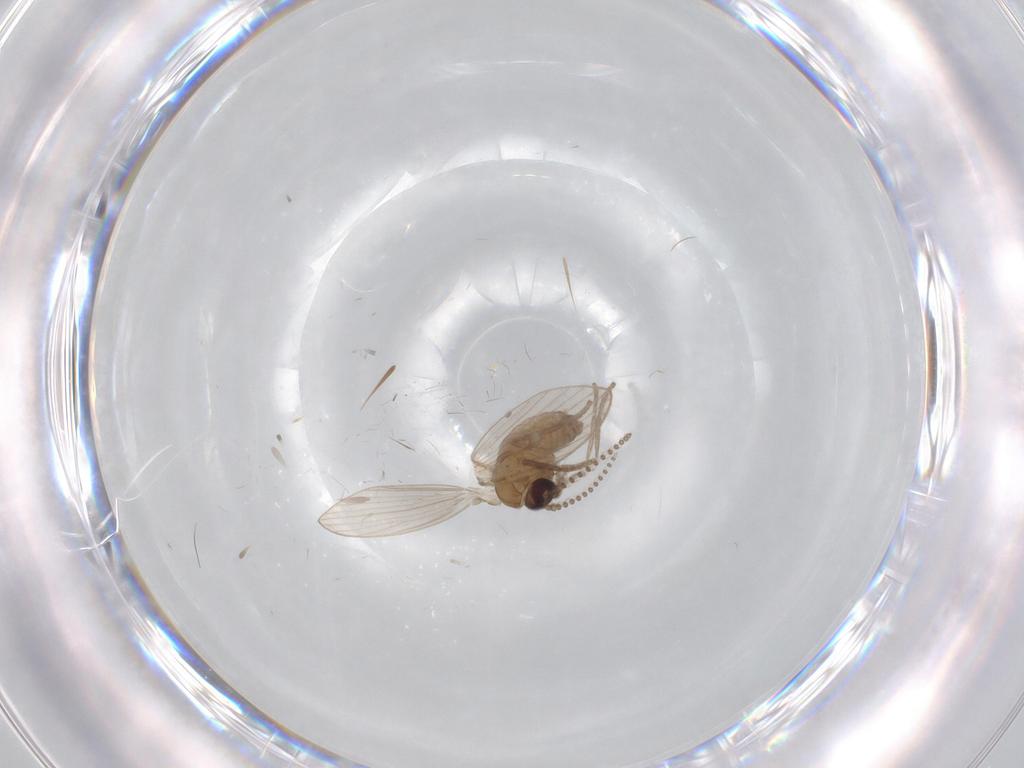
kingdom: Animalia
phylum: Arthropoda
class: Insecta
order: Diptera
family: Psychodidae
